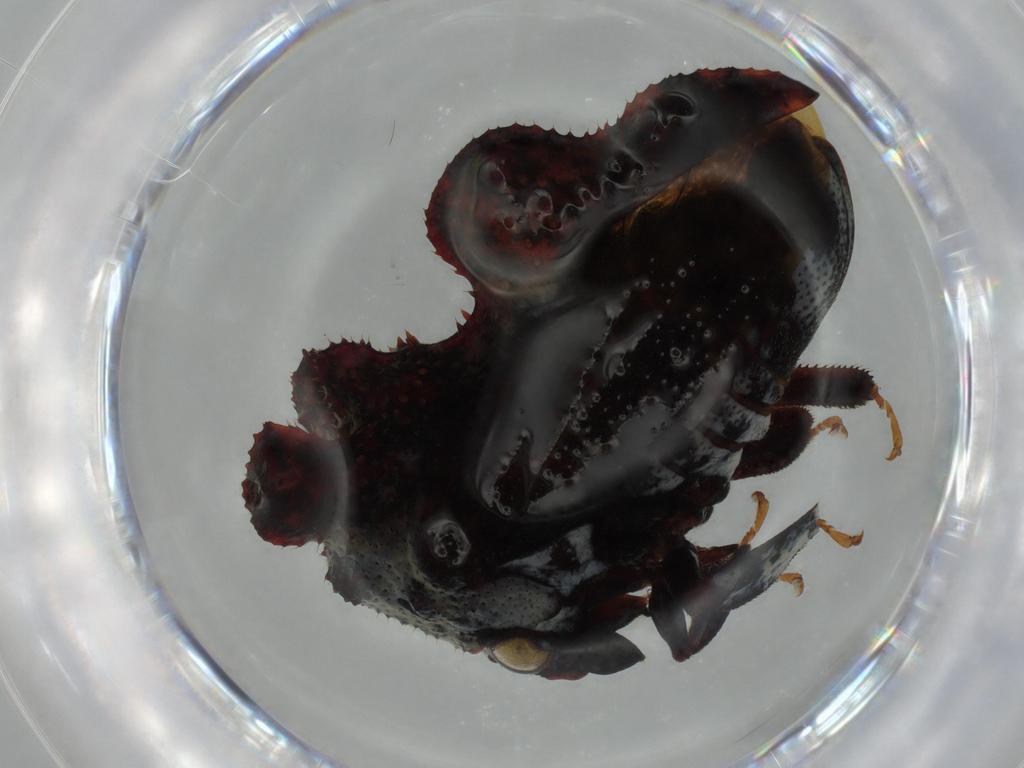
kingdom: Animalia
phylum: Arthropoda
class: Insecta
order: Hemiptera
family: Membracidae
